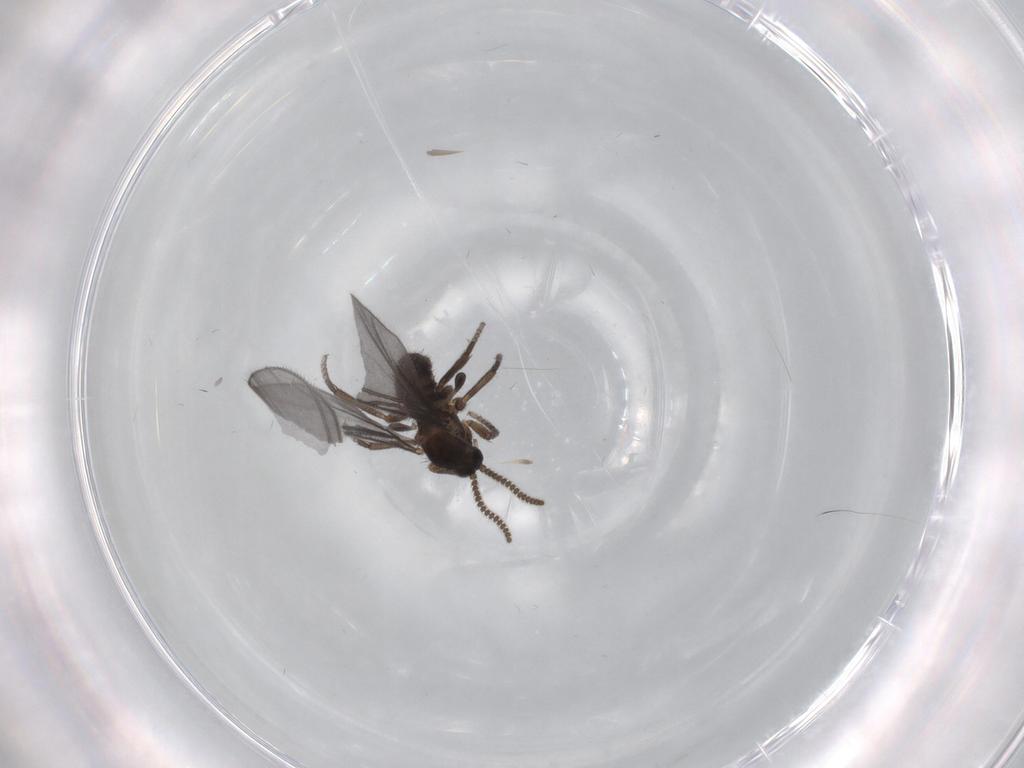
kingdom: Animalia
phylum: Arthropoda
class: Insecta
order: Diptera
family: Sciaridae
